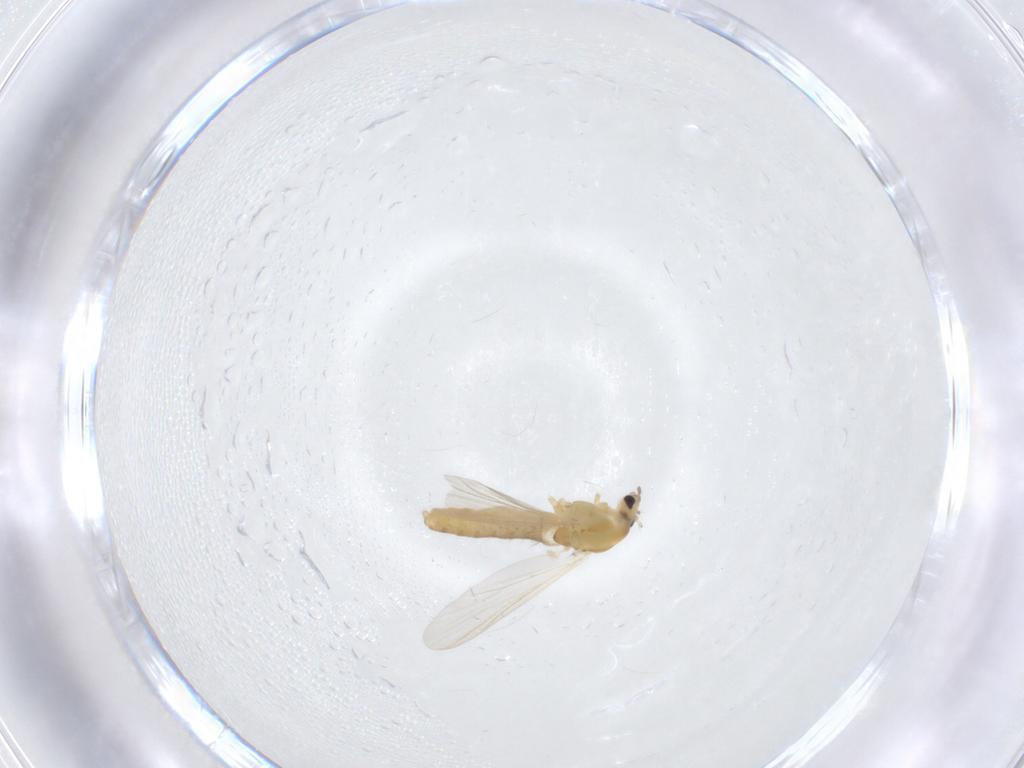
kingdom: Animalia
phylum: Arthropoda
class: Insecta
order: Diptera
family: Chironomidae
